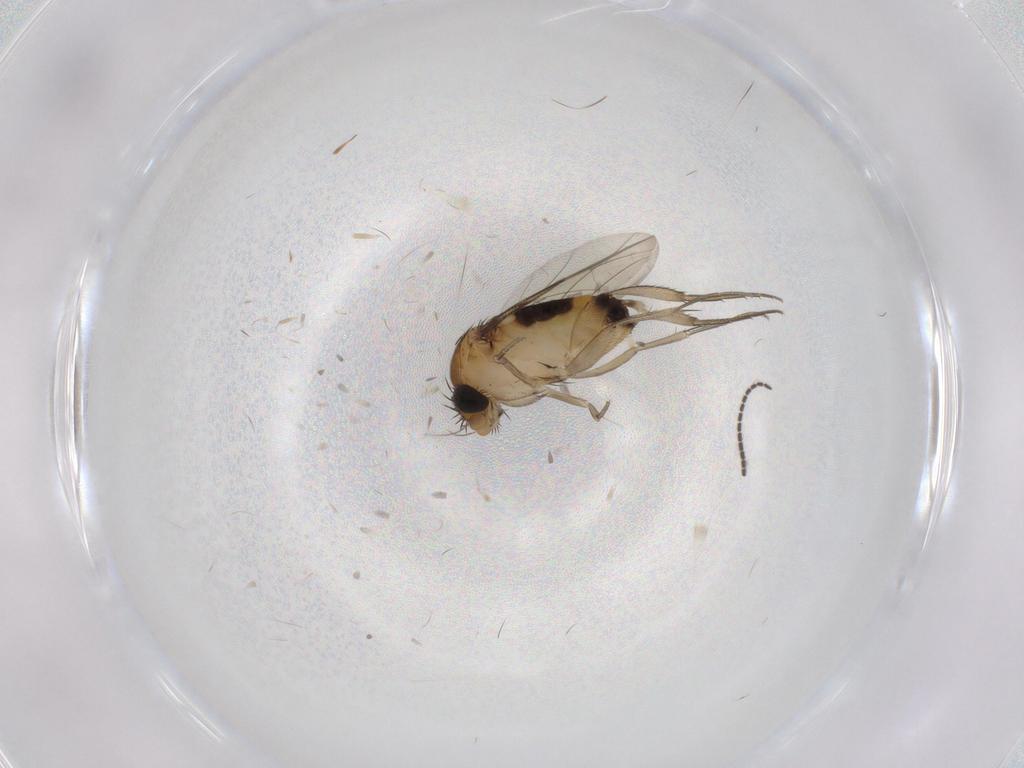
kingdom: Animalia
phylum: Arthropoda
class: Insecta
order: Diptera
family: Phoridae
